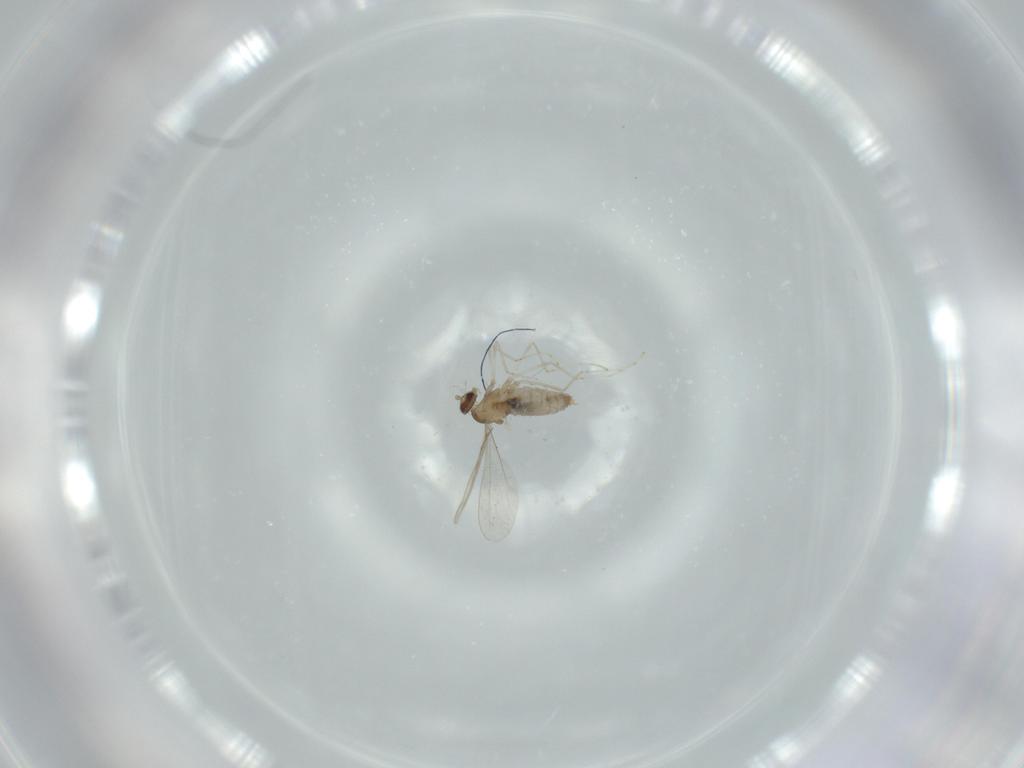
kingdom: Animalia
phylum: Arthropoda
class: Insecta
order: Diptera
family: Cecidomyiidae
